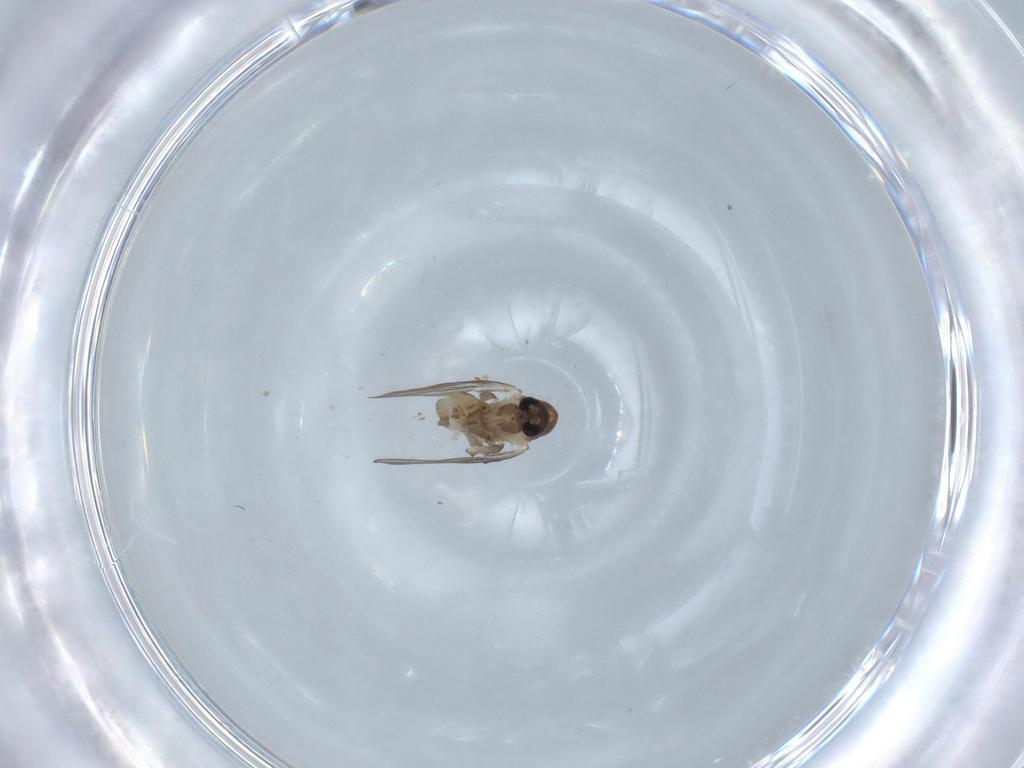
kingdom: Animalia
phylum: Arthropoda
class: Insecta
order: Diptera
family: Psychodidae
